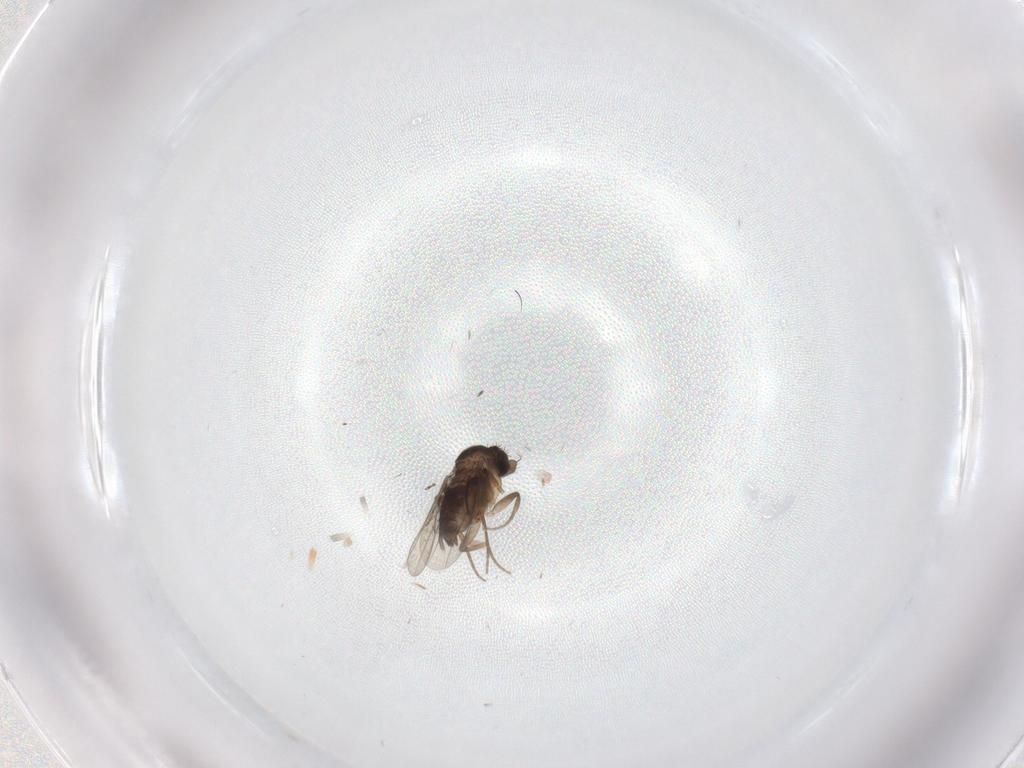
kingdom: Animalia
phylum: Arthropoda
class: Insecta
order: Diptera
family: Phoridae
